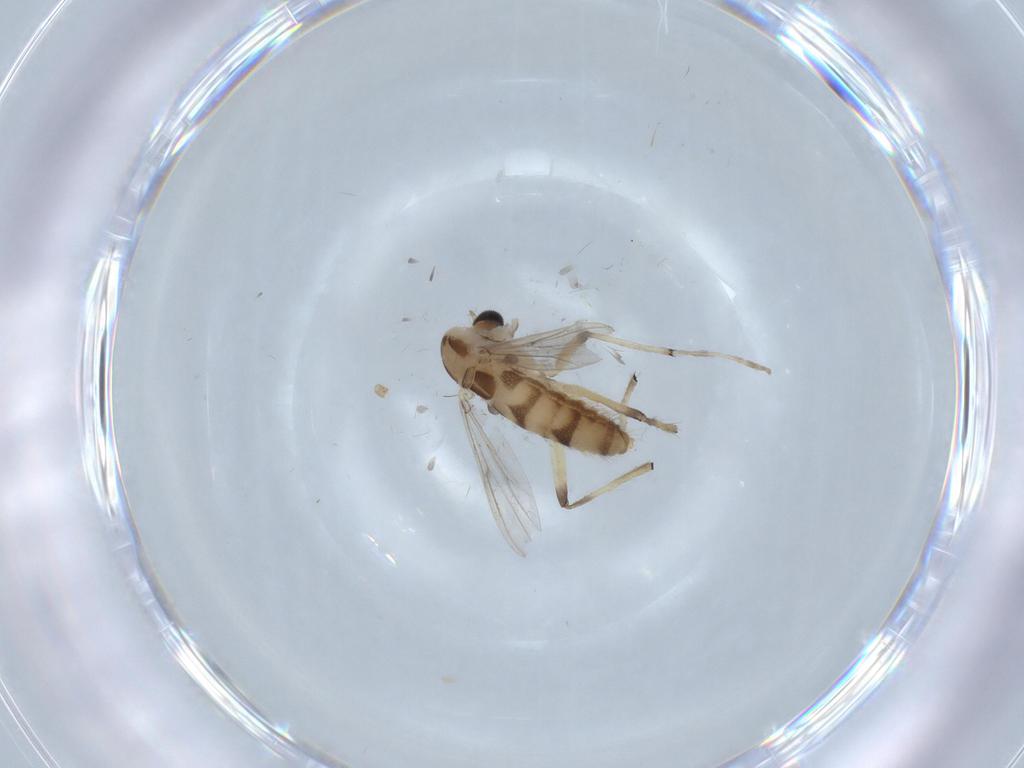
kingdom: Animalia
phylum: Arthropoda
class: Insecta
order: Diptera
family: Chironomidae
